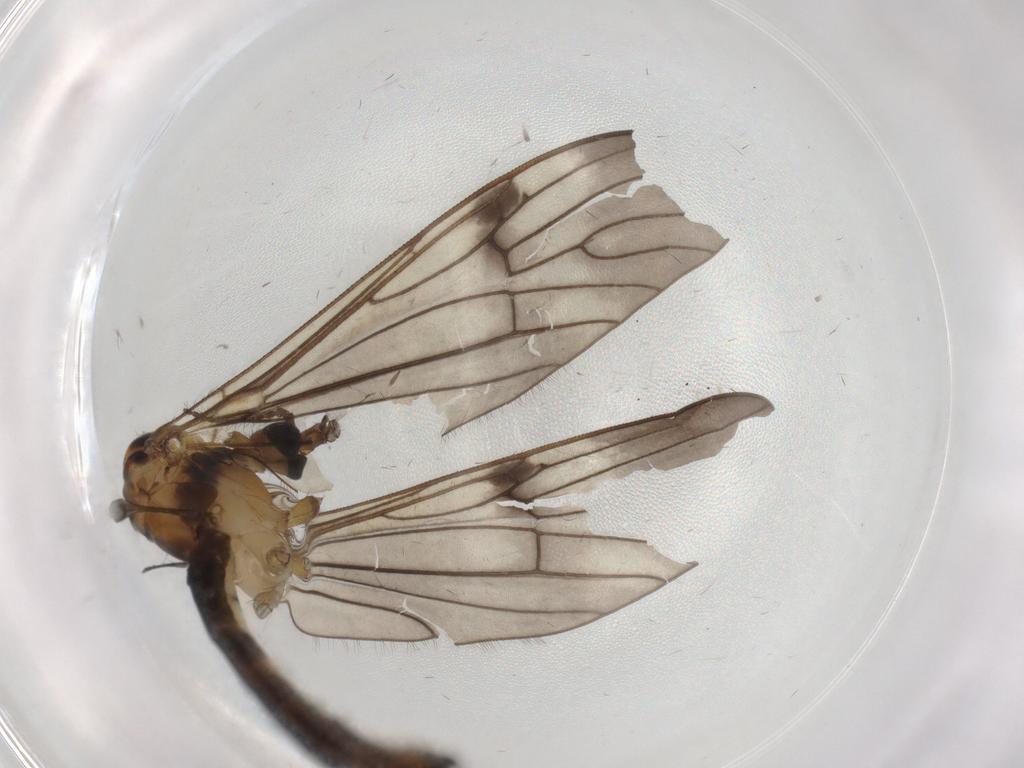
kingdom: Animalia
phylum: Arthropoda
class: Insecta
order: Diptera
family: Limoniidae
